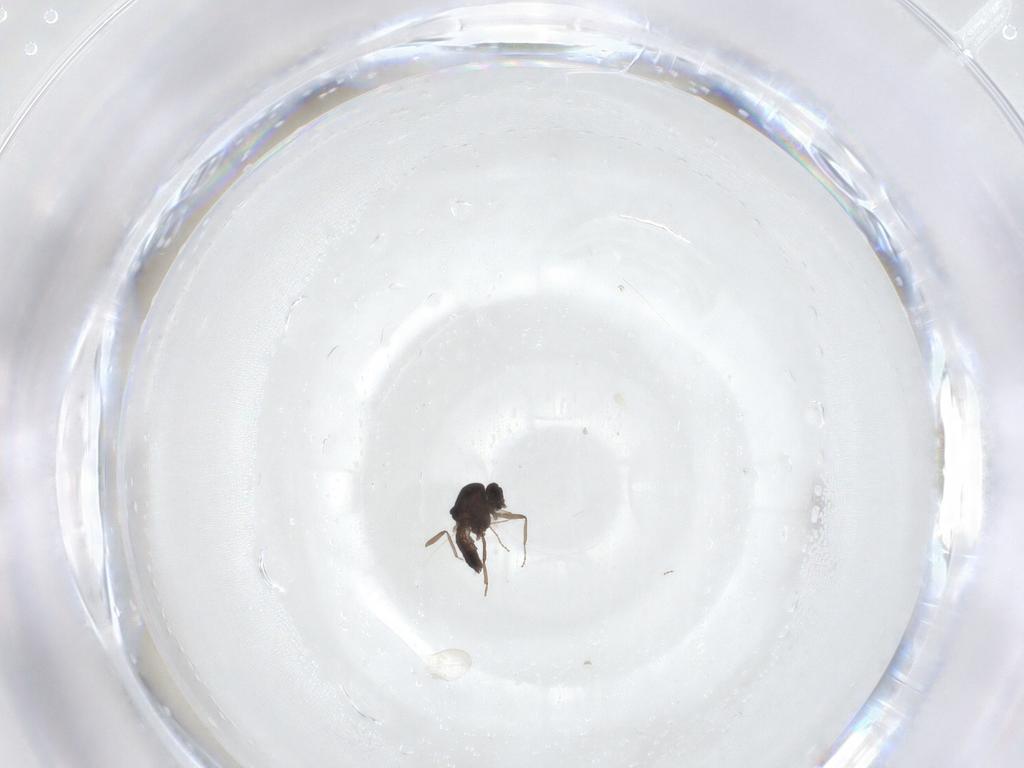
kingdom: Animalia
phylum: Arthropoda
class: Insecta
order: Diptera
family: Ceratopogonidae
